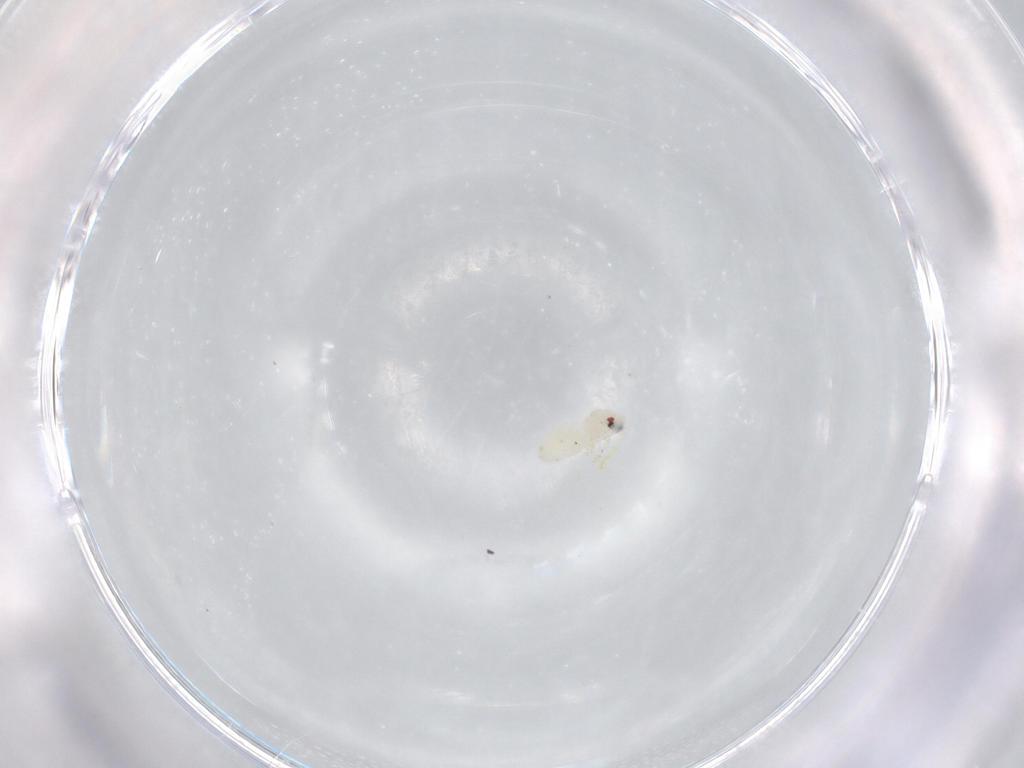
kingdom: Animalia
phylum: Arthropoda
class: Insecta
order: Hemiptera
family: Aleyrodidae
